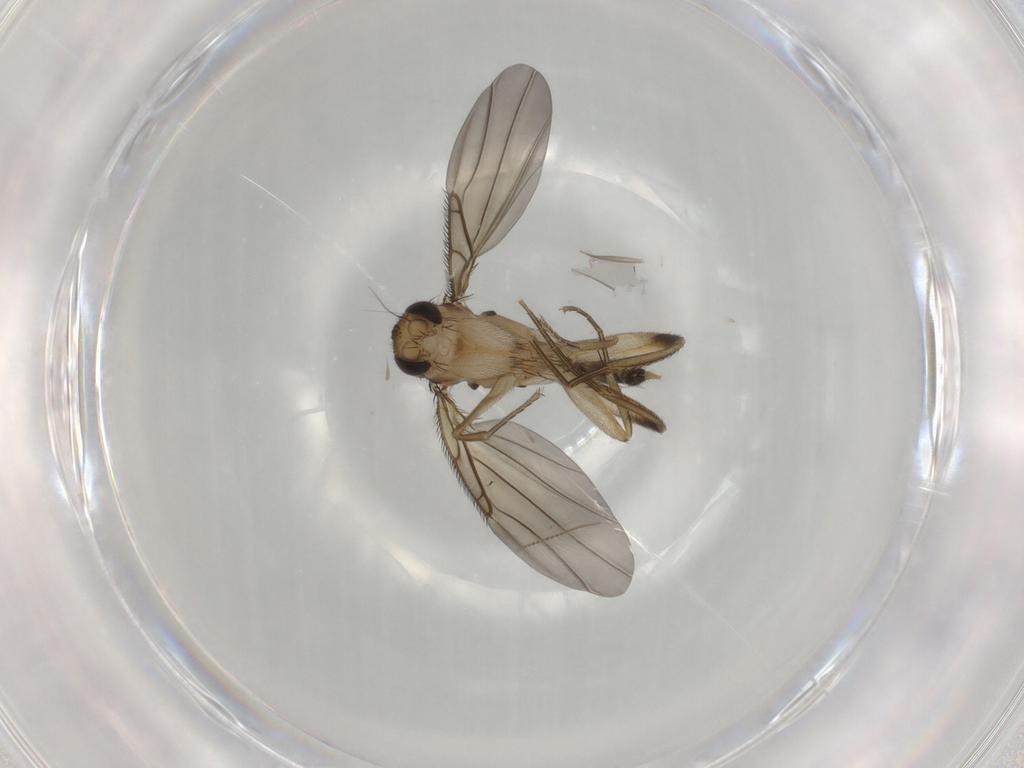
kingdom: Animalia
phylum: Arthropoda
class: Insecta
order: Diptera
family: Phoridae
